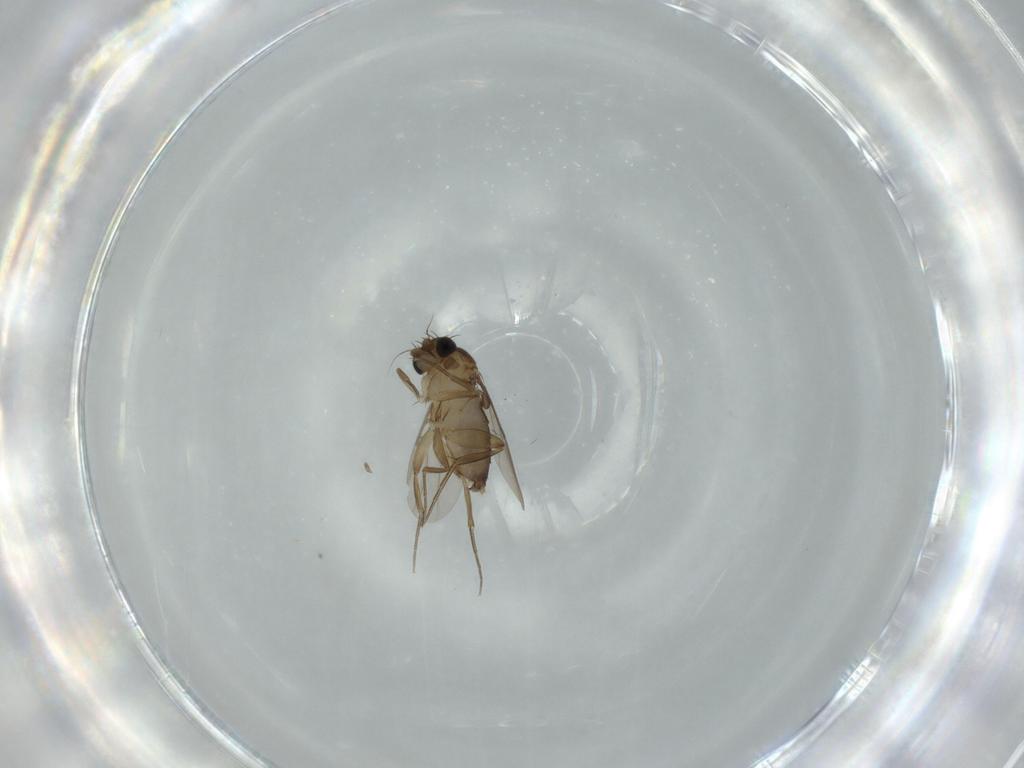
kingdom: Animalia
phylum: Arthropoda
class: Insecta
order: Diptera
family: Phoridae
